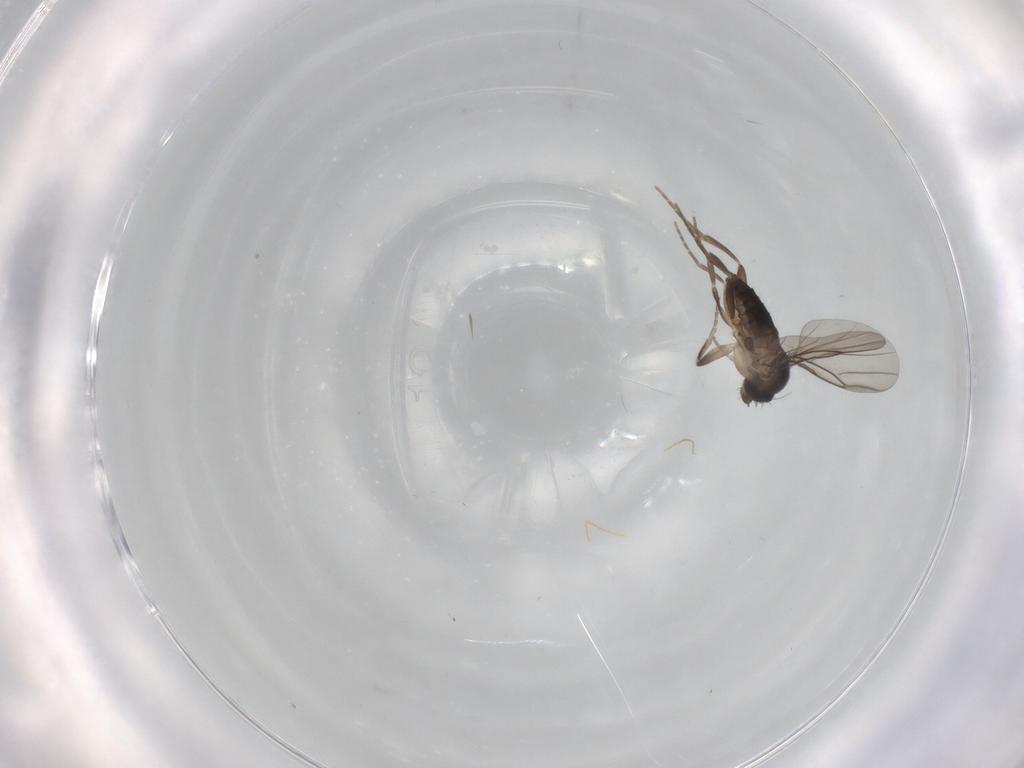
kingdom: Animalia
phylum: Arthropoda
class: Insecta
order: Diptera
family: Cecidomyiidae
